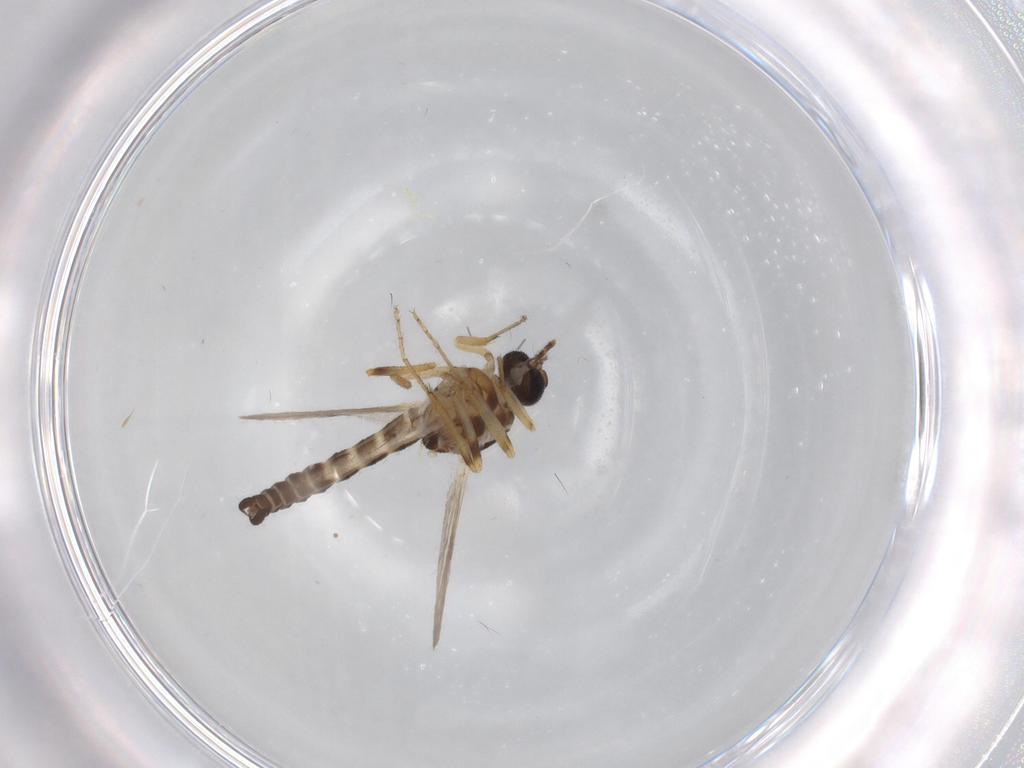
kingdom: Animalia
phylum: Arthropoda
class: Insecta
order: Diptera
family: Ceratopogonidae
